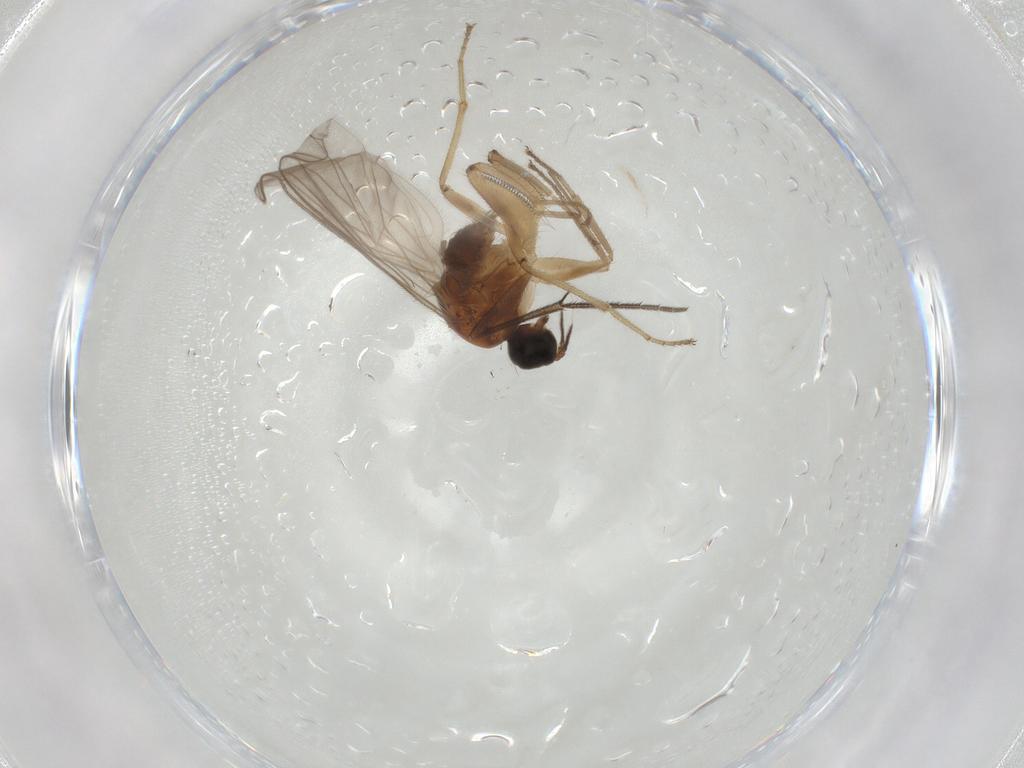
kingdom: Animalia
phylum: Arthropoda
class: Insecta
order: Diptera
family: Hybotidae
